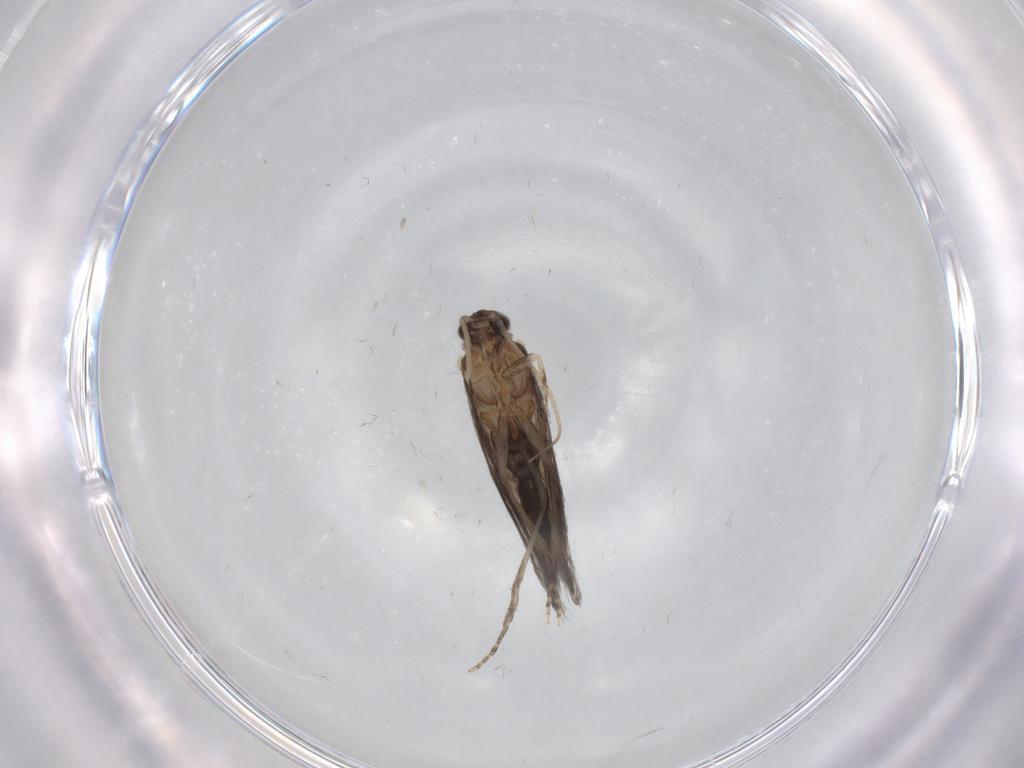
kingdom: Animalia
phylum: Arthropoda
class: Insecta
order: Trichoptera
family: Hydroptilidae
